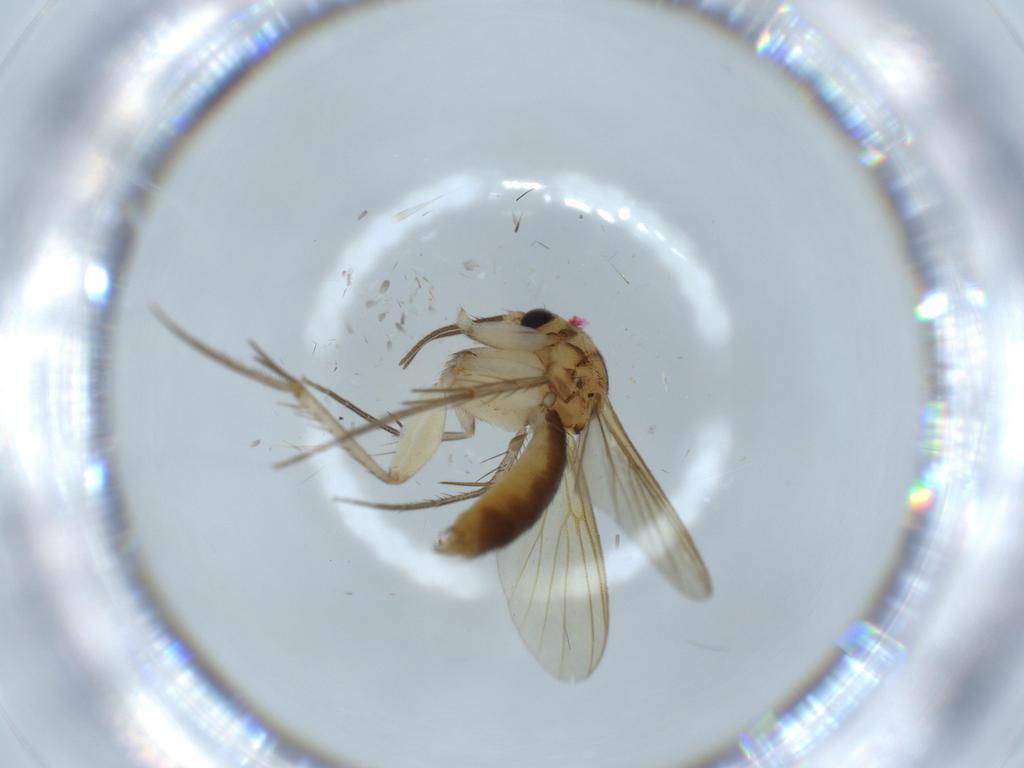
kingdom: Animalia
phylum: Arthropoda
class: Insecta
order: Diptera
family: Mycetophilidae
